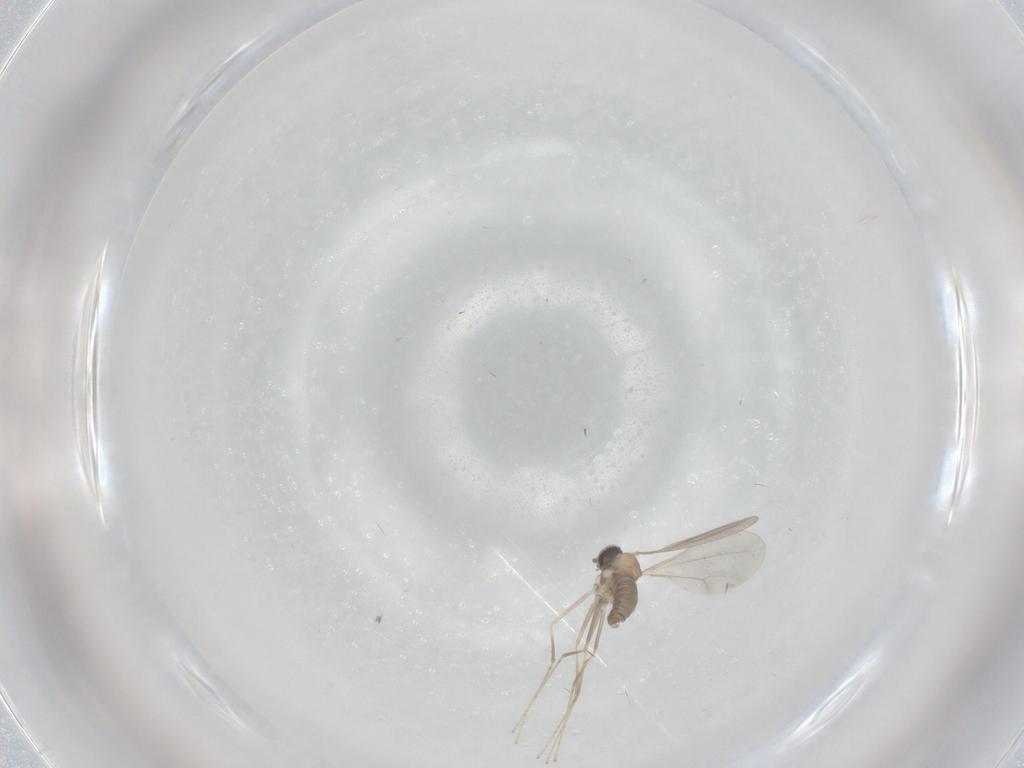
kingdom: Animalia
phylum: Arthropoda
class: Insecta
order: Diptera
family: Cecidomyiidae
